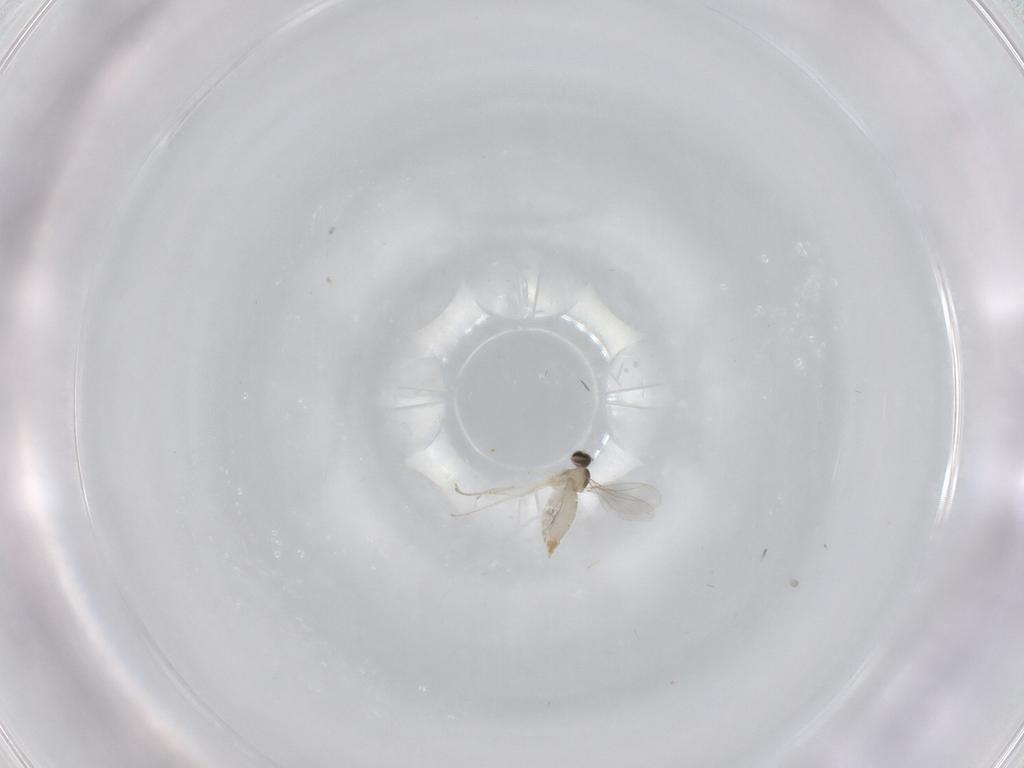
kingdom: Animalia
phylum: Arthropoda
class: Insecta
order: Diptera
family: Cecidomyiidae
